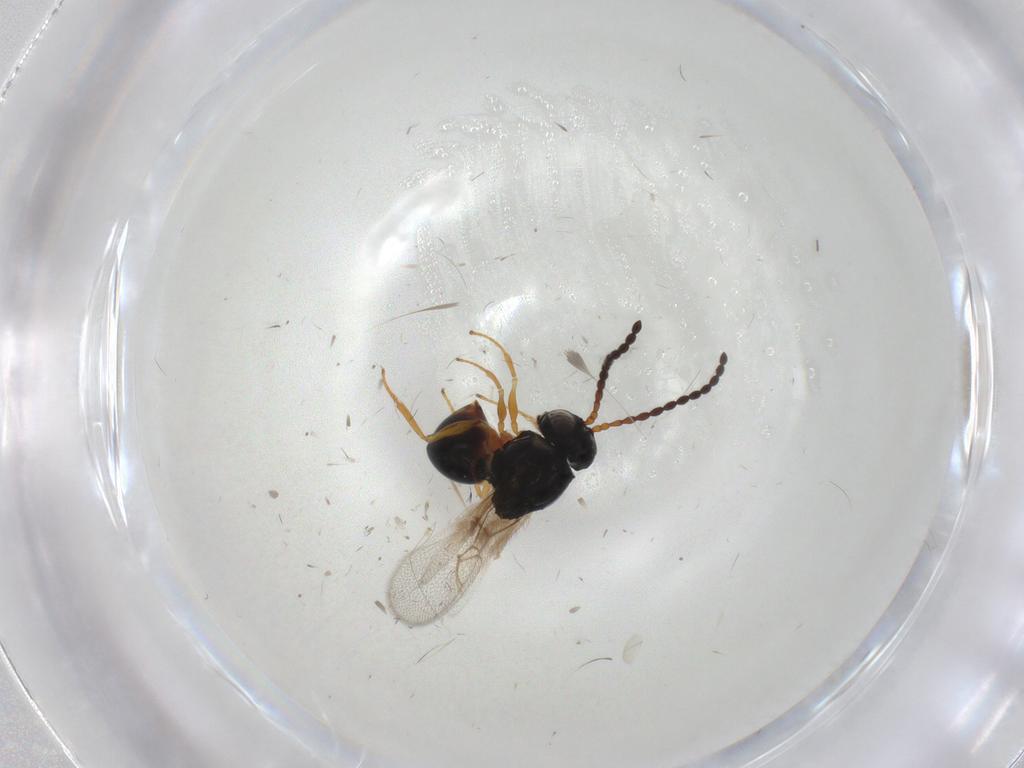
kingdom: Animalia
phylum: Arthropoda
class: Insecta
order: Hymenoptera
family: Figitidae
